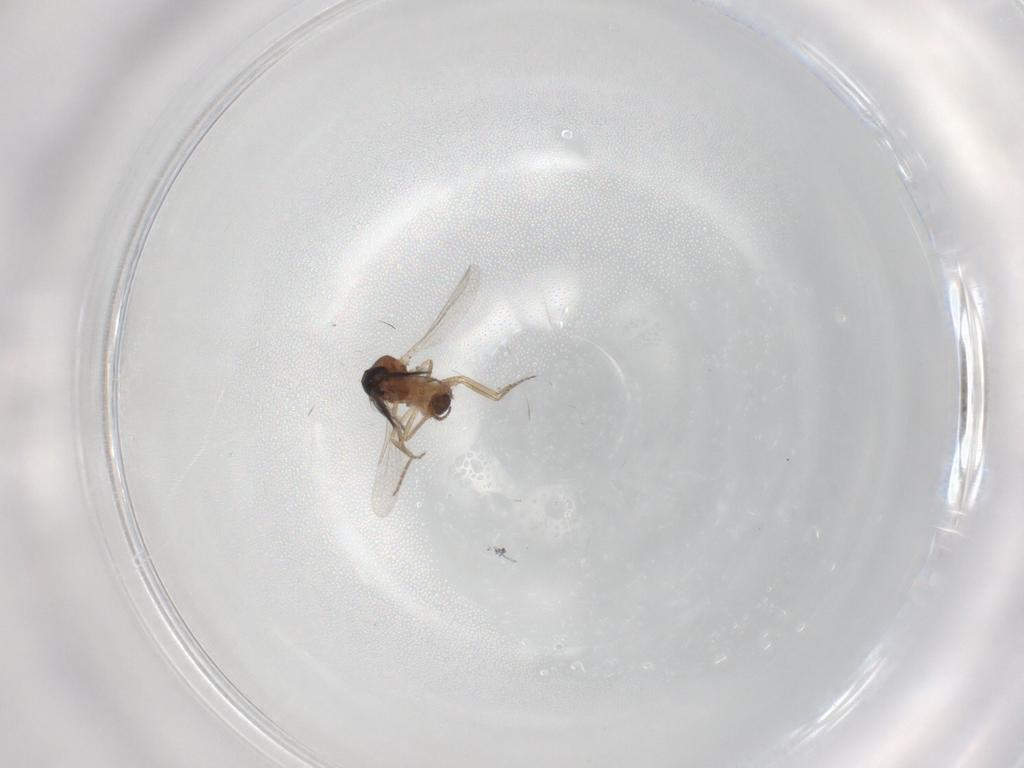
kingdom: Animalia
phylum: Arthropoda
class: Insecta
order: Diptera
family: Ceratopogonidae
